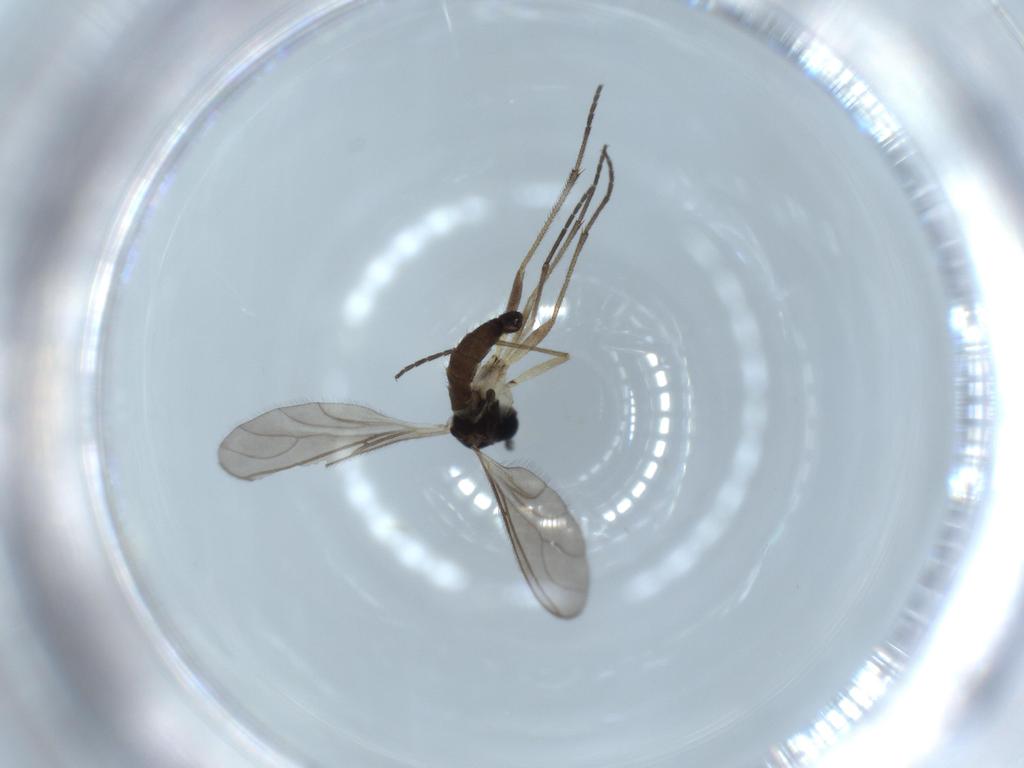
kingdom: Animalia
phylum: Arthropoda
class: Insecta
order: Diptera
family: Sciaridae
